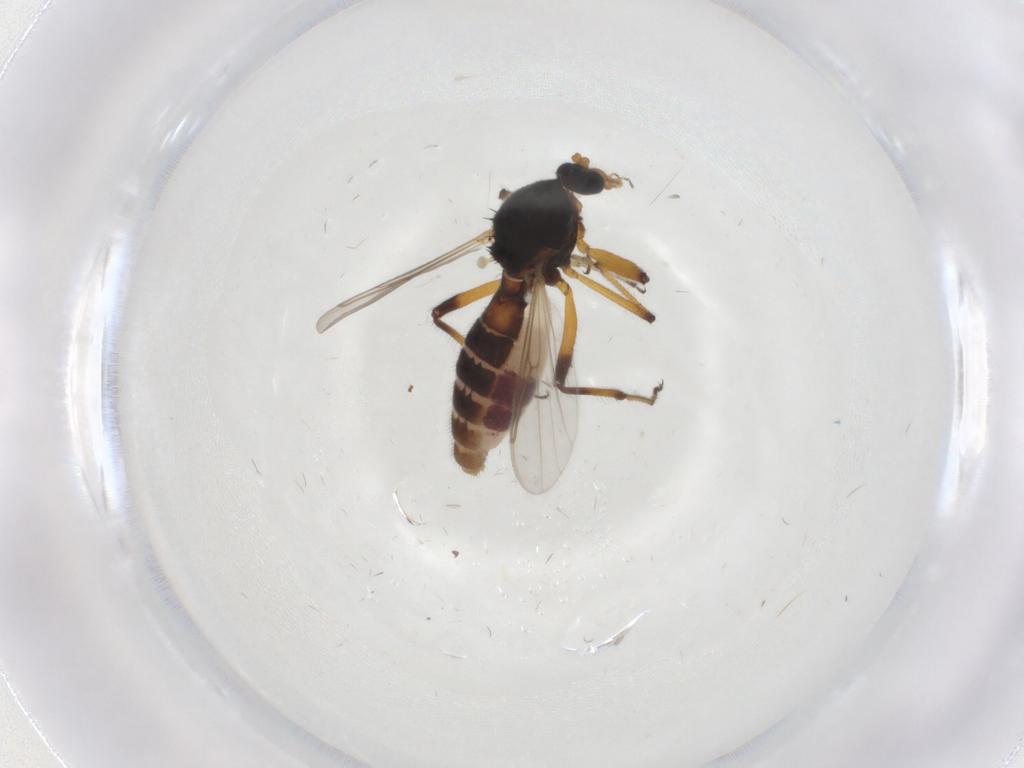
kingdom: Animalia
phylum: Arthropoda
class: Insecta
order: Diptera
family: Ceratopogonidae
